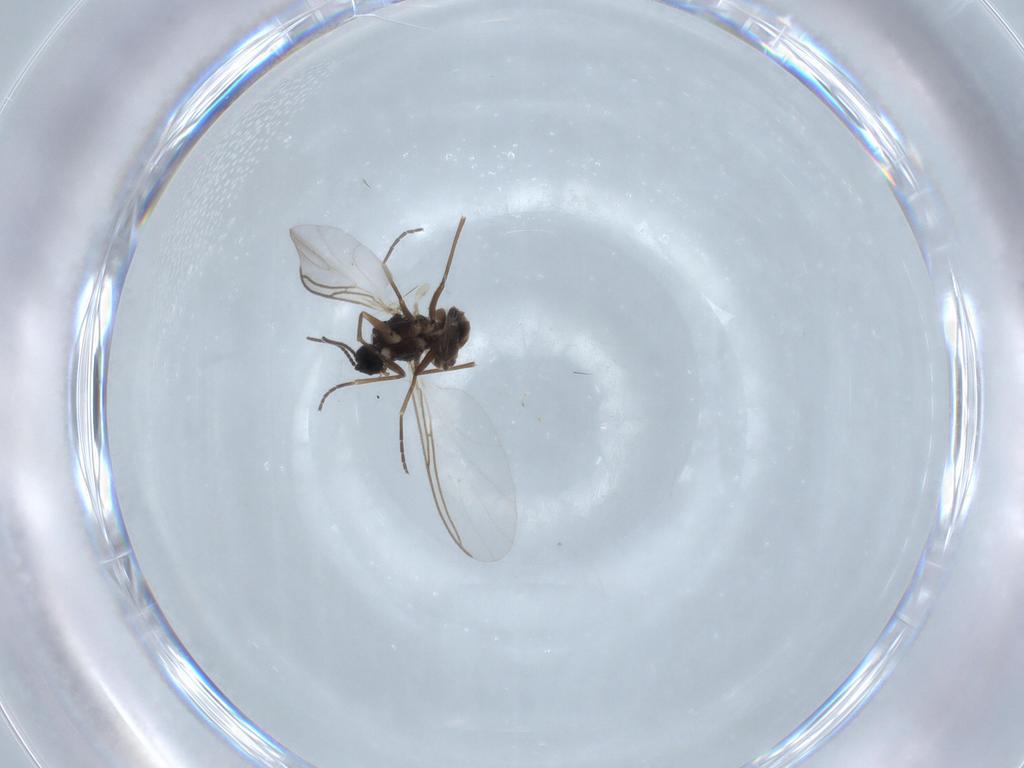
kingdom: Animalia
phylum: Arthropoda
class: Insecta
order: Diptera
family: Sciaridae
